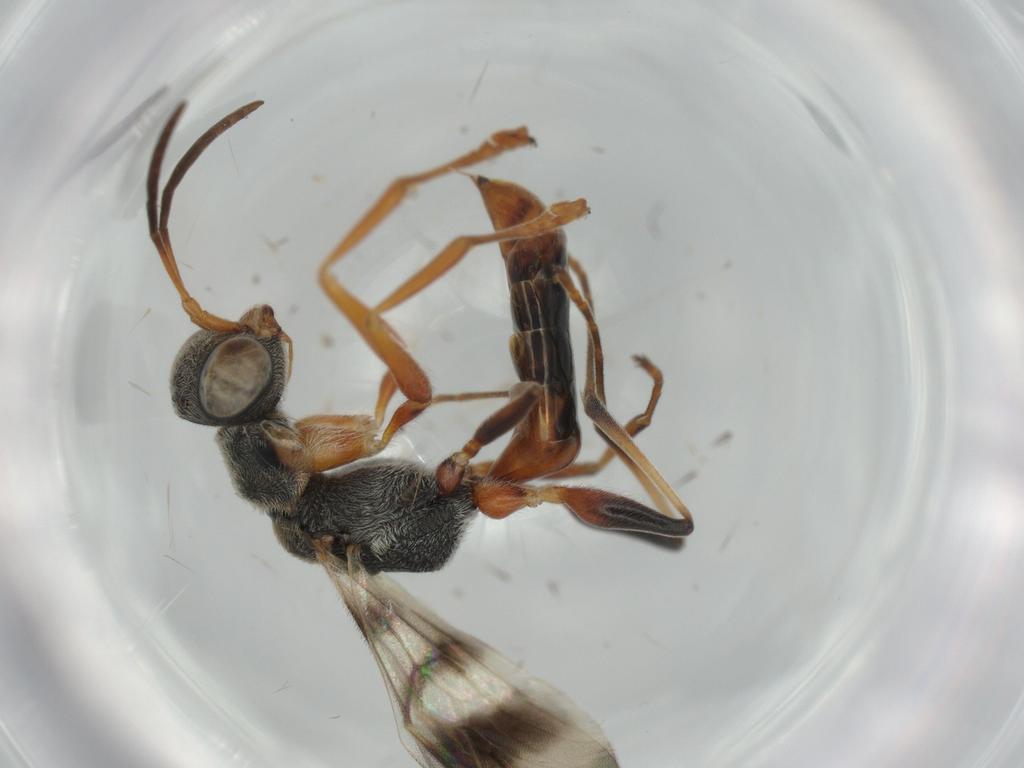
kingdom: Animalia
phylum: Arthropoda
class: Insecta
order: Hymenoptera
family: Apidae
